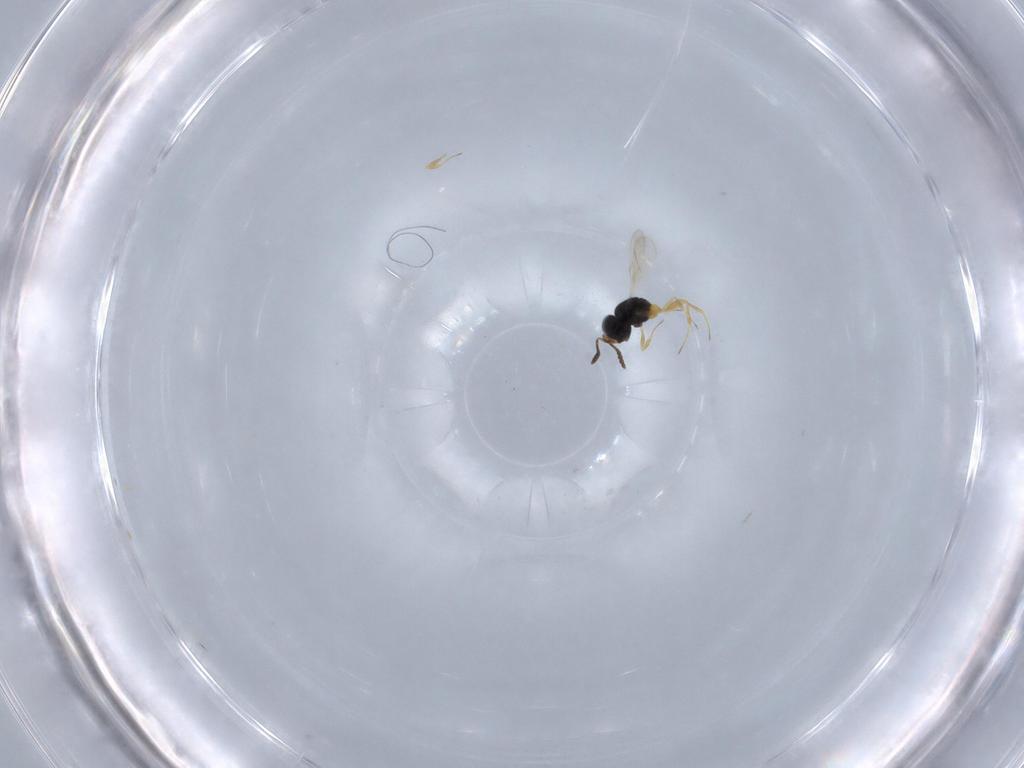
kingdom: Animalia
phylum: Arthropoda
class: Insecta
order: Hymenoptera
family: Scelionidae
